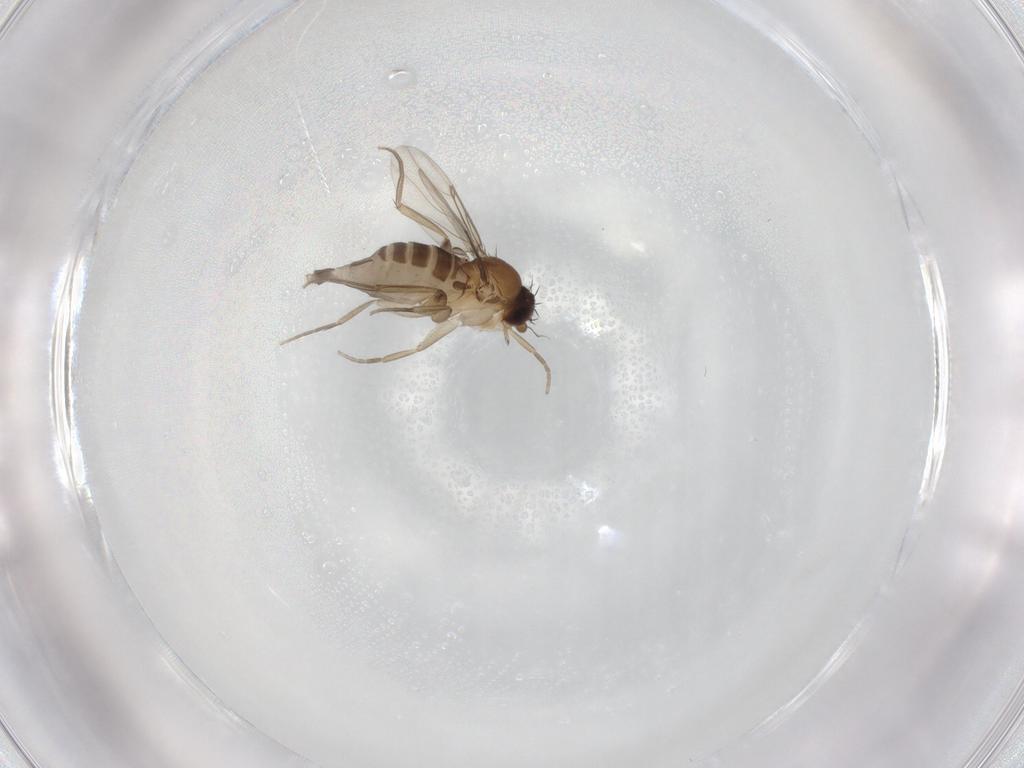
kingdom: Animalia
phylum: Arthropoda
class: Insecta
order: Diptera
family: Phoridae
